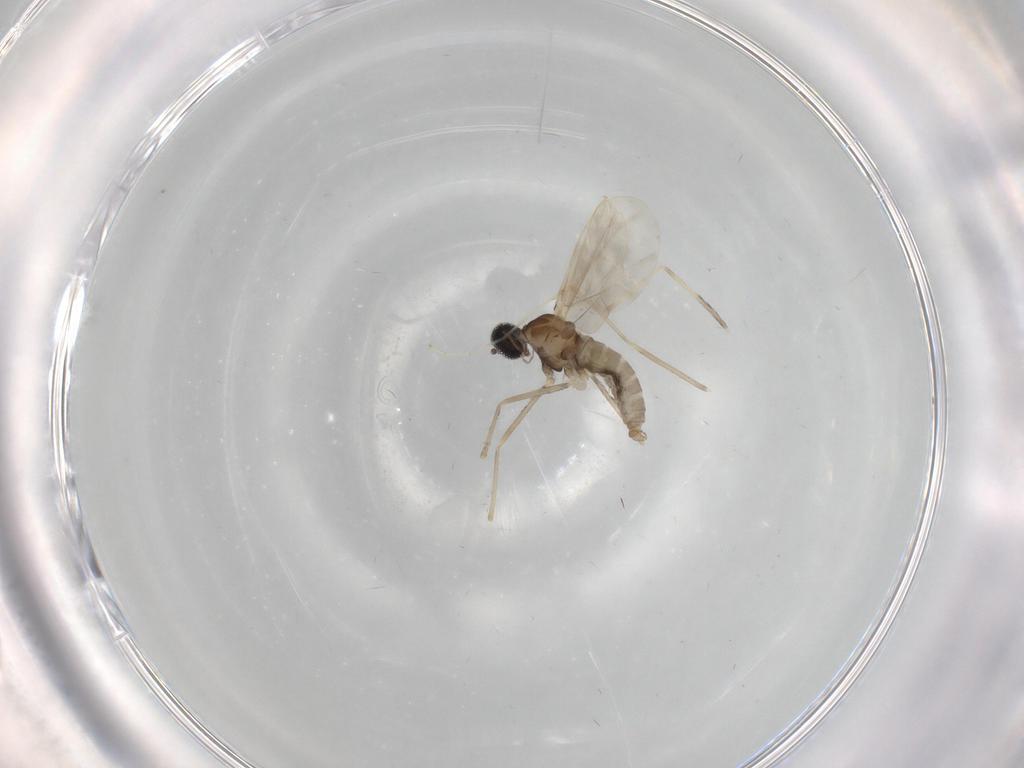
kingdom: Animalia
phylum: Arthropoda
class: Insecta
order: Diptera
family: Cecidomyiidae
